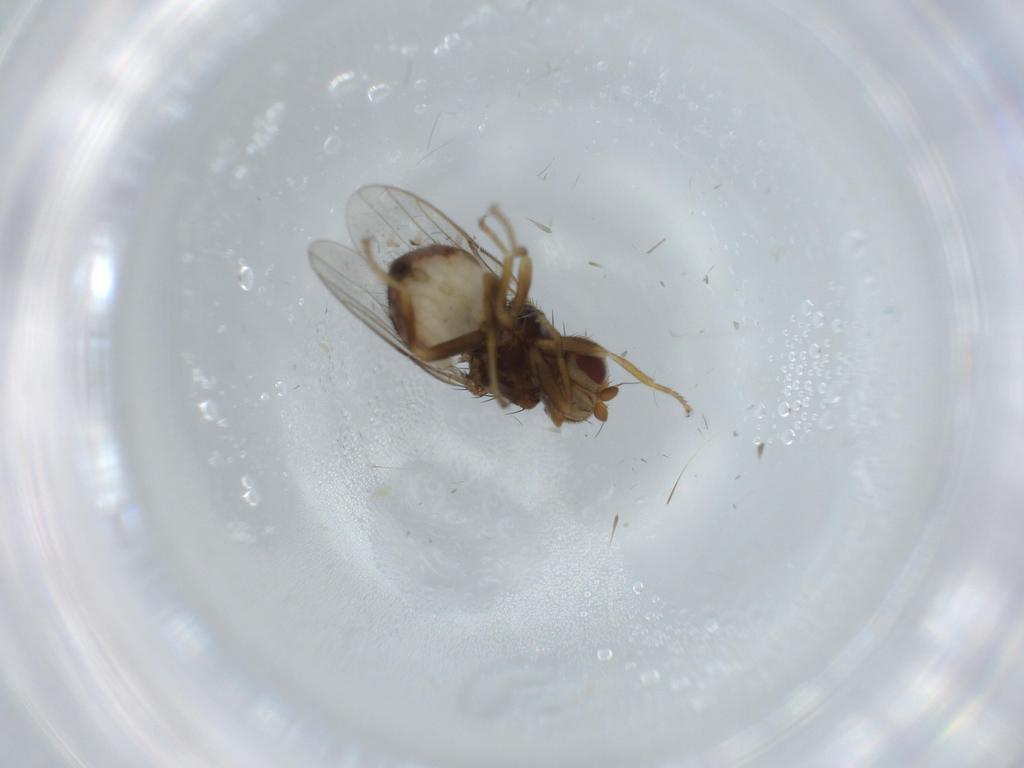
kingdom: Animalia
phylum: Arthropoda
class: Insecta
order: Diptera
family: Chloropidae
